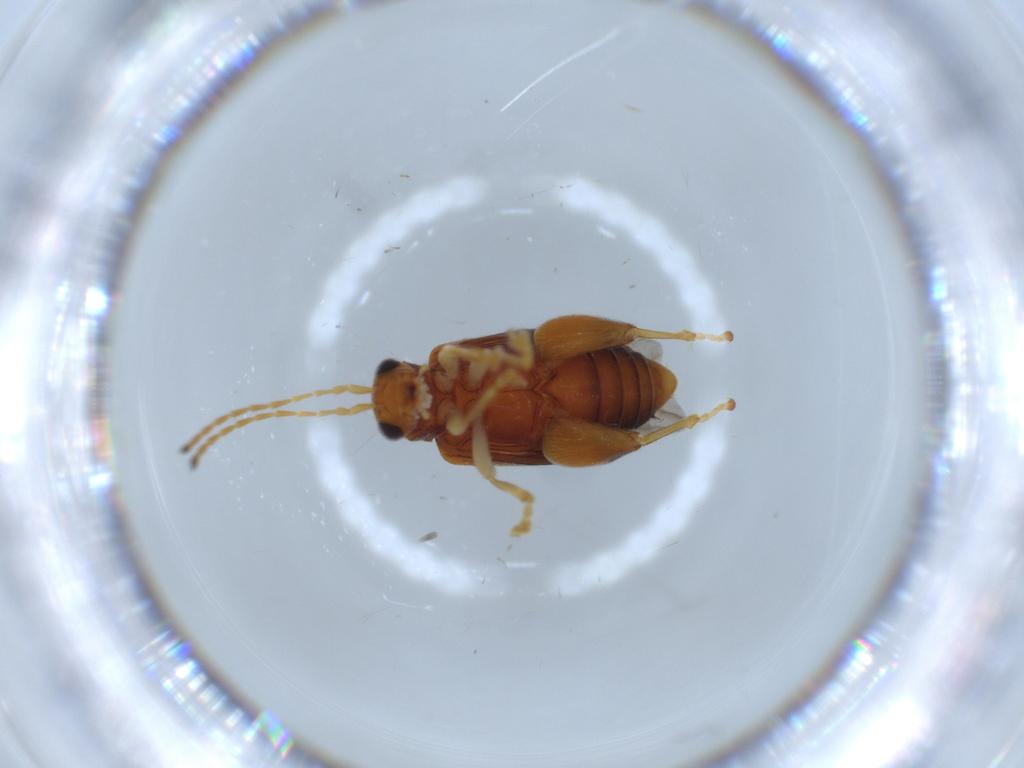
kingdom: Animalia
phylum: Arthropoda
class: Insecta
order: Coleoptera
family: Chrysomelidae
